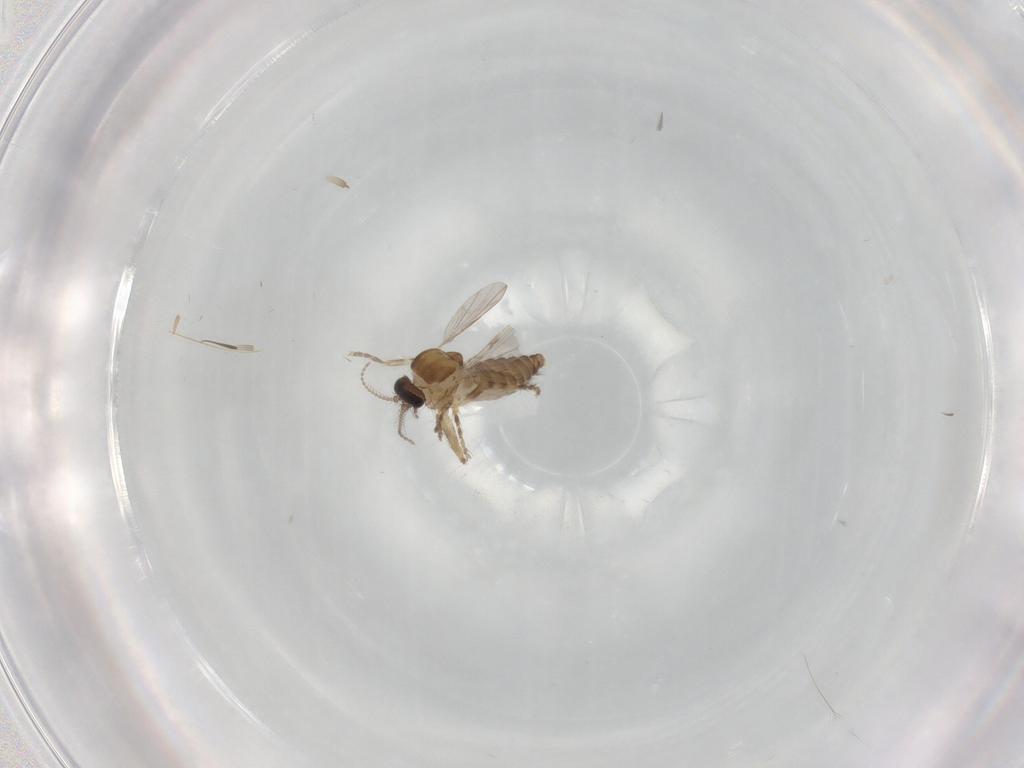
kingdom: Animalia
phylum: Arthropoda
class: Insecta
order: Diptera
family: Ceratopogonidae
